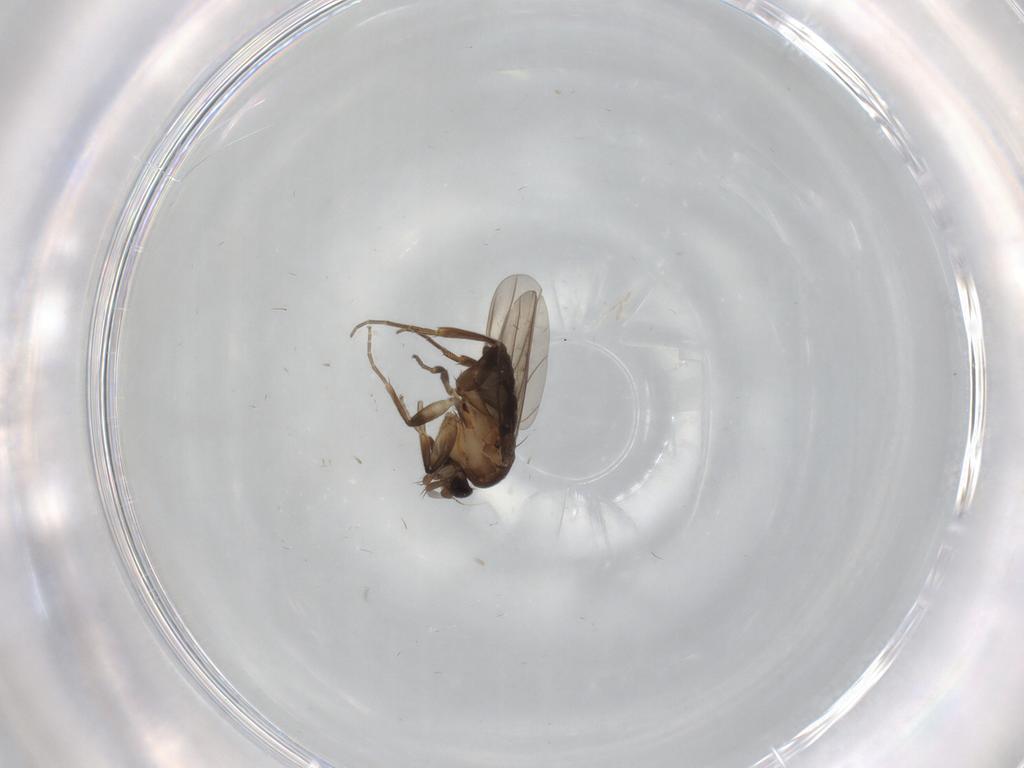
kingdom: Animalia
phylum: Arthropoda
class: Insecta
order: Diptera
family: Phoridae
